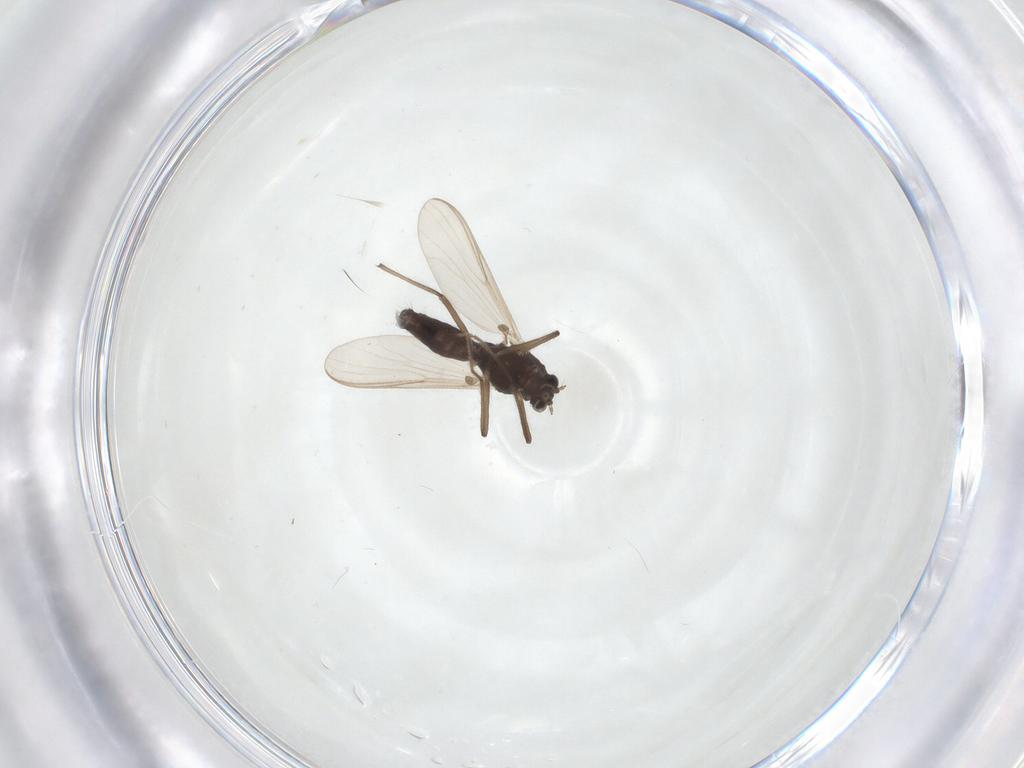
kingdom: Animalia
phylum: Arthropoda
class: Insecta
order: Diptera
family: Chironomidae
